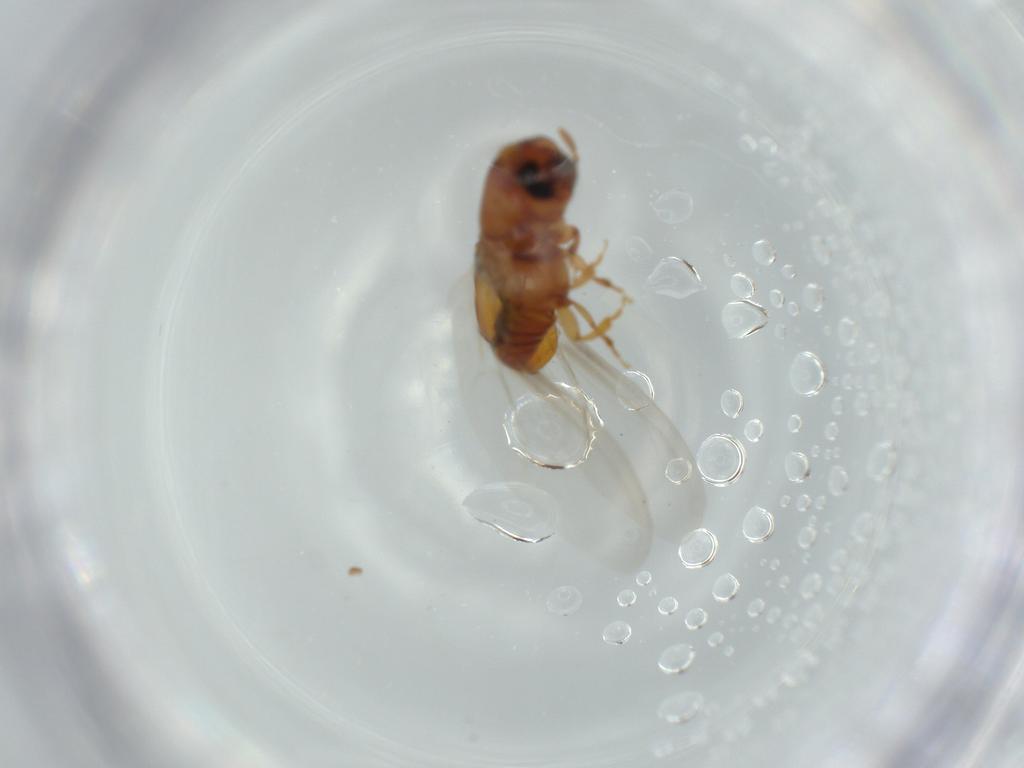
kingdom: Animalia
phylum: Arthropoda
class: Insecta
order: Coleoptera
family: Curculionidae
